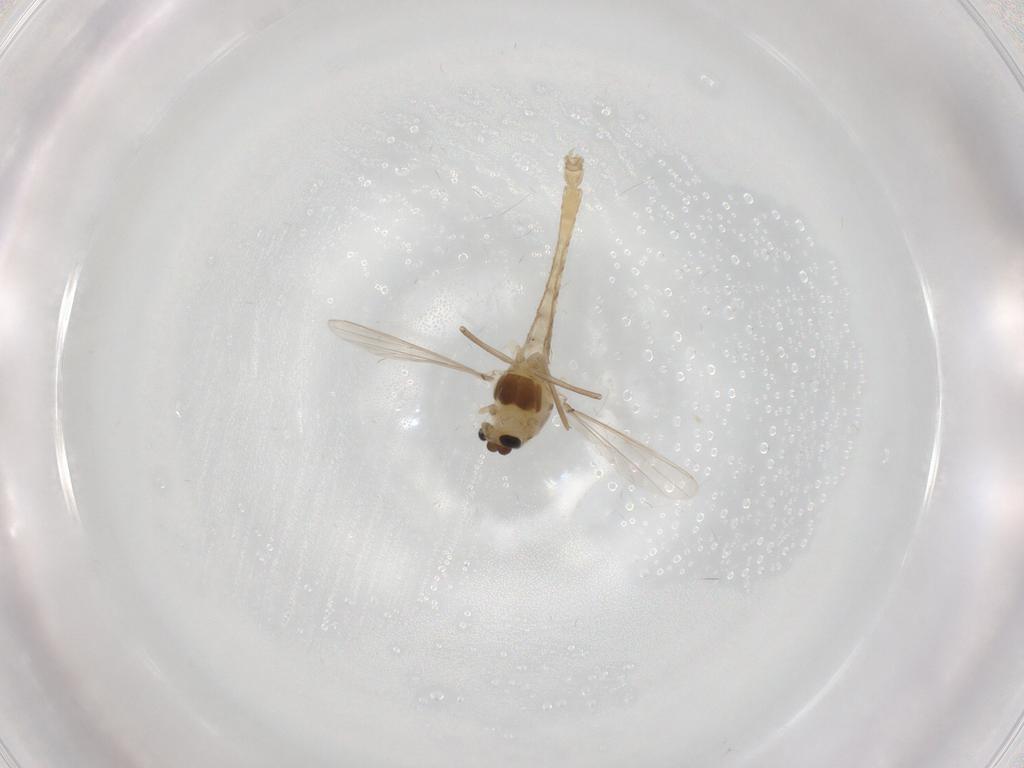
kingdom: Animalia
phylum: Arthropoda
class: Insecta
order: Diptera
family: Chironomidae
